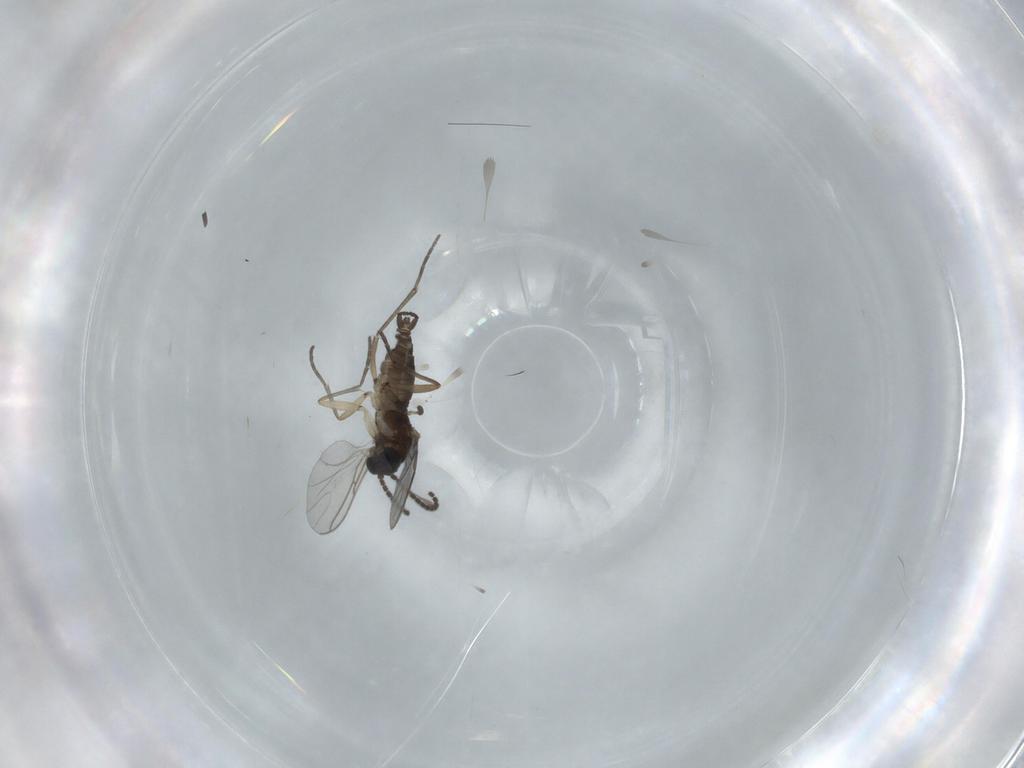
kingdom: Animalia
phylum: Arthropoda
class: Insecta
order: Diptera
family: Sciaridae
